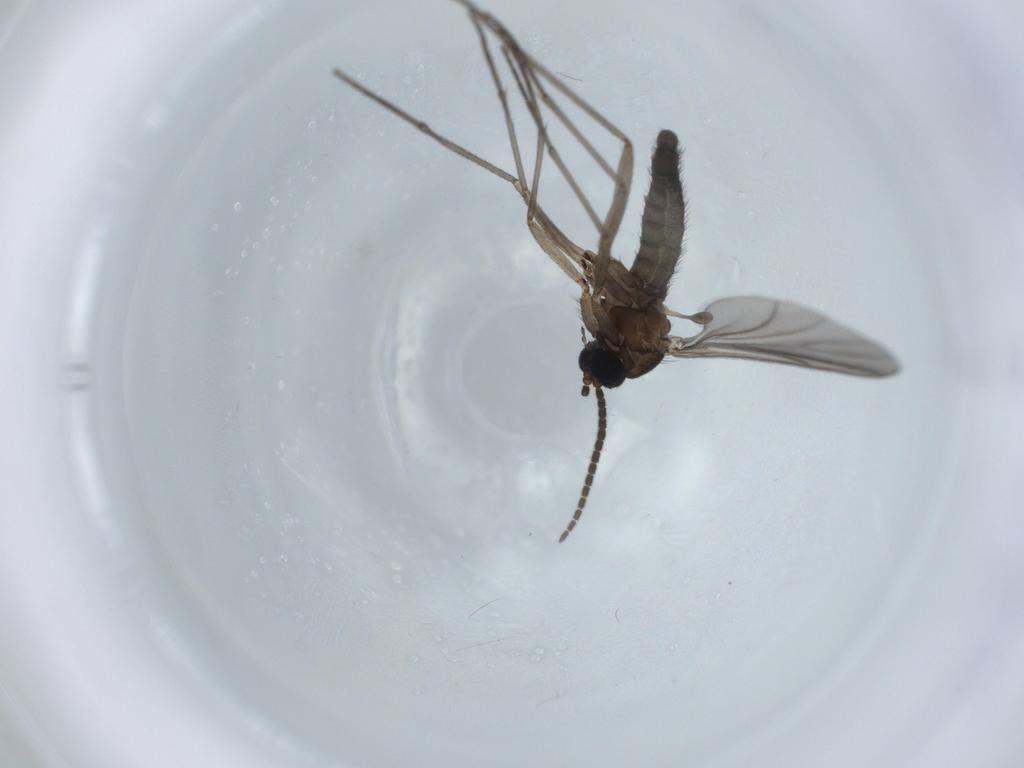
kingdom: Animalia
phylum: Arthropoda
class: Insecta
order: Diptera
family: Sciaridae
